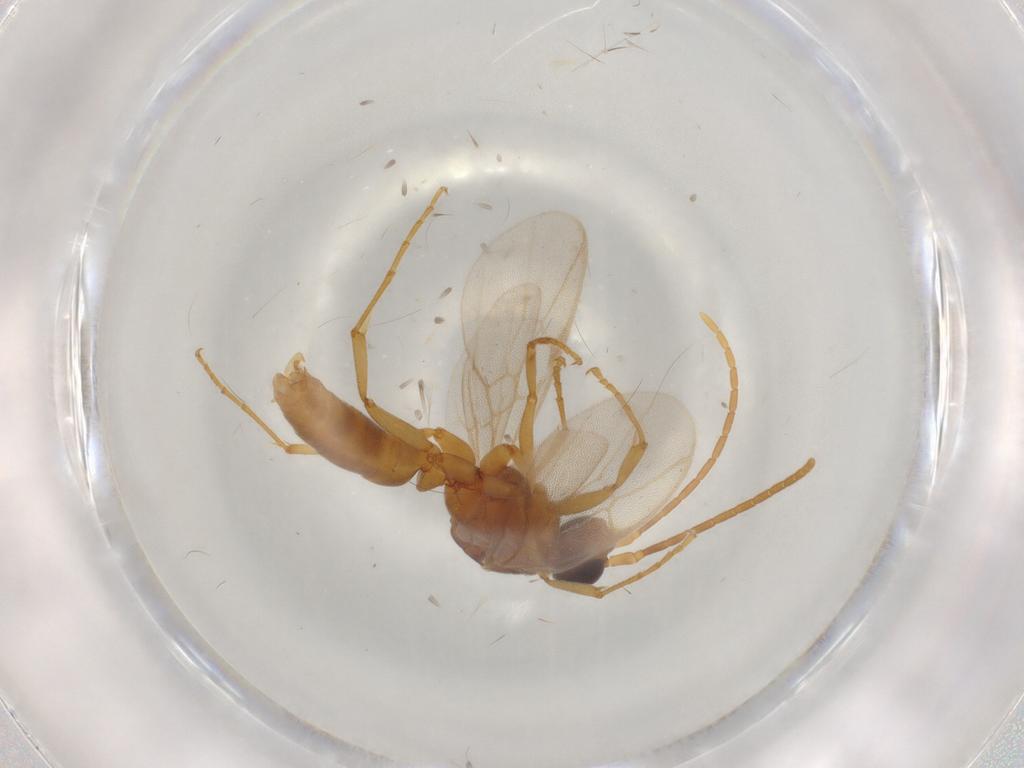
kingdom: Animalia
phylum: Arthropoda
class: Insecta
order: Hymenoptera
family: Formicidae
